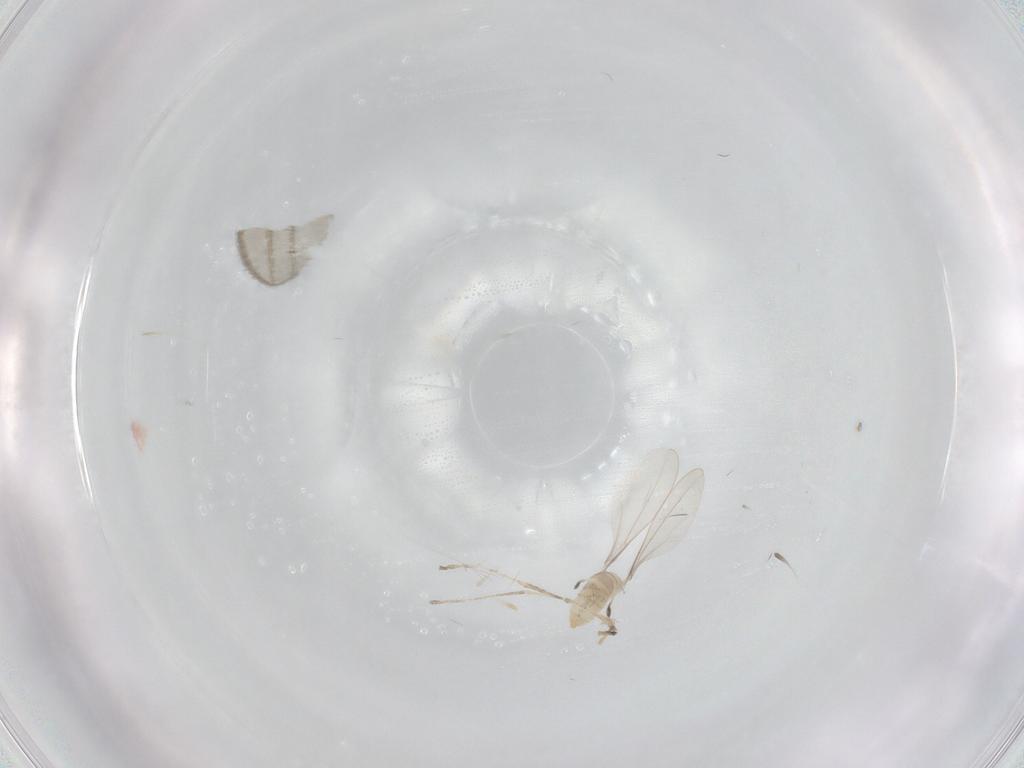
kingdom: Animalia
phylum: Arthropoda
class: Insecta
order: Diptera
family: Cecidomyiidae
